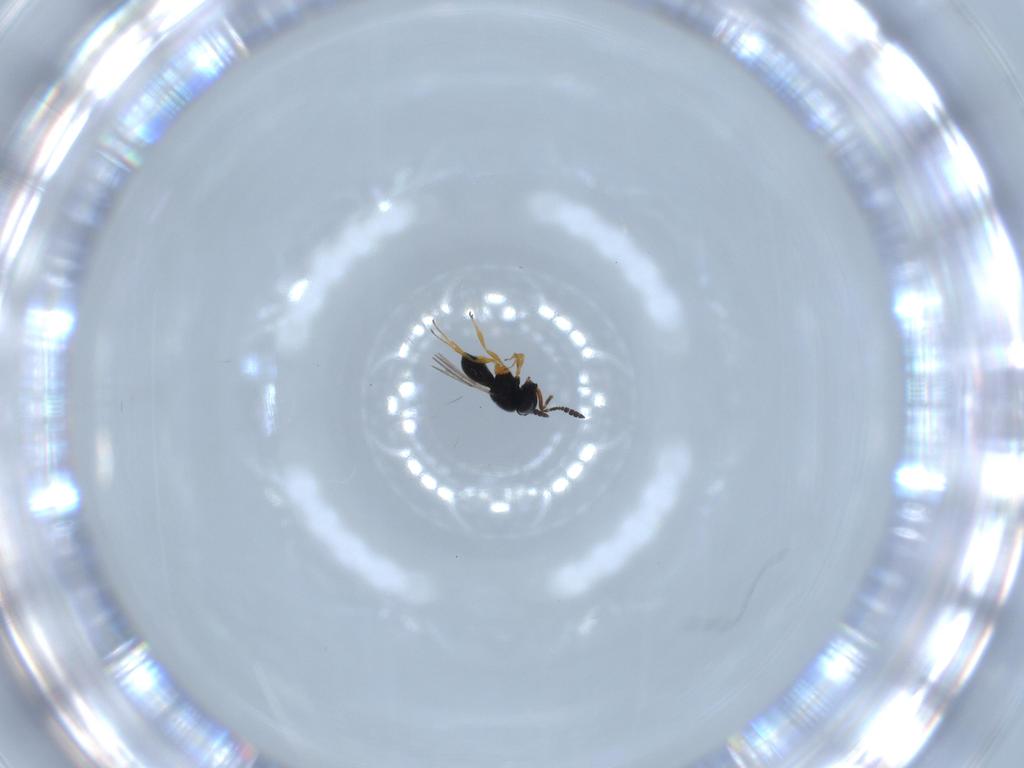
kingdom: Animalia
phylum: Arthropoda
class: Insecta
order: Hymenoptera
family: Scelionidae
